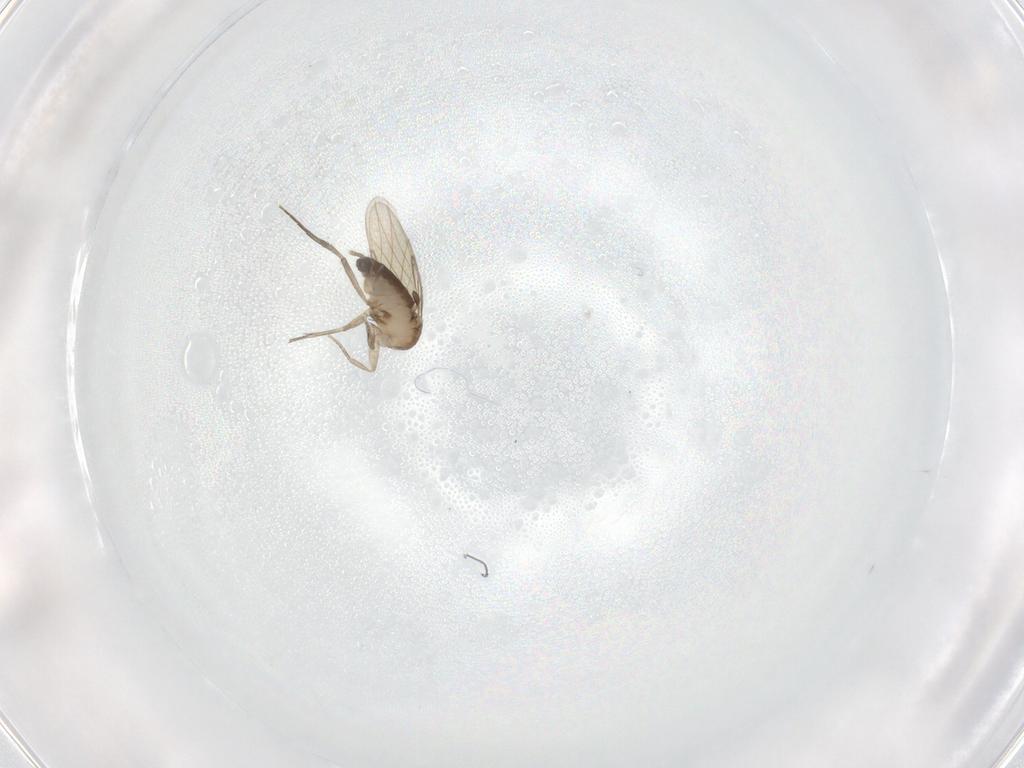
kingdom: Animalia
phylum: Arthropoda
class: Insecta
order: Diptera
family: Phoridae
